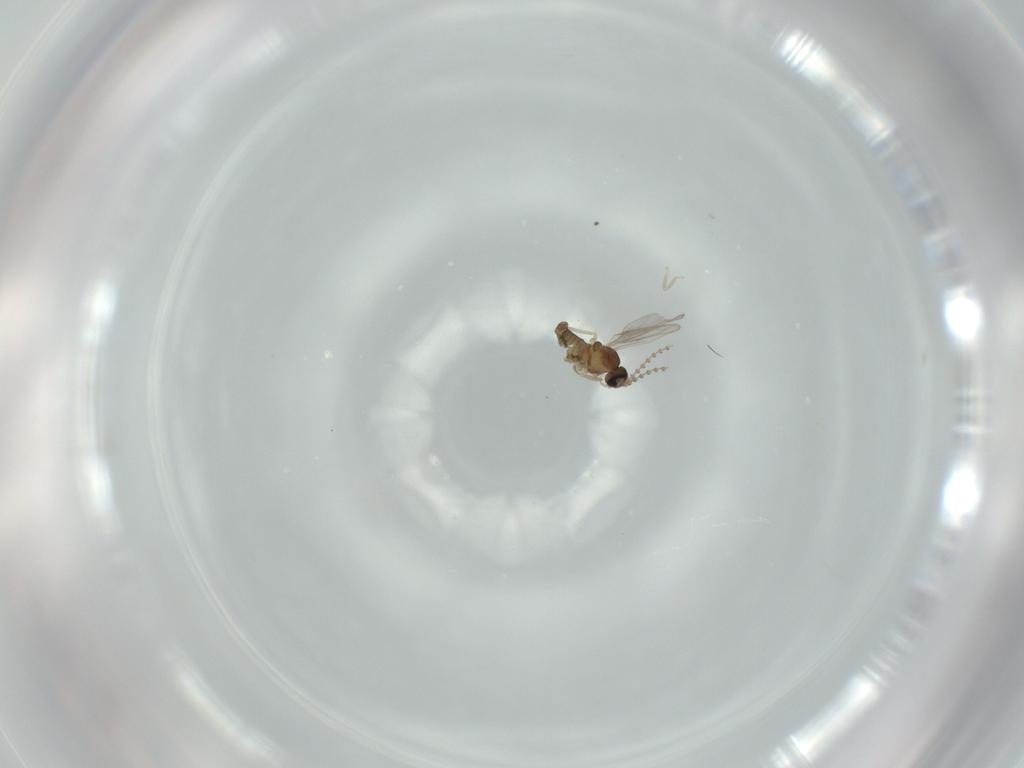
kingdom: Animalia
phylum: Arthropoda
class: Insecta
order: Diptera
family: Cecidomyiidae
